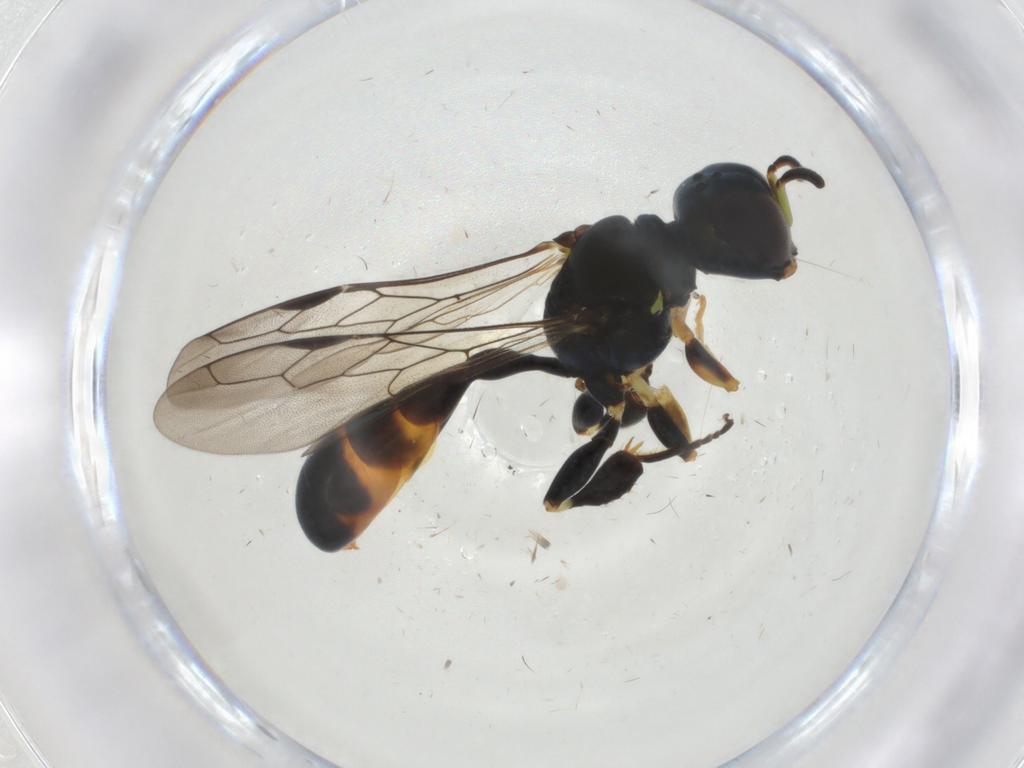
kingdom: Animalia
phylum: Arthropoda
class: Insecta
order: Hymenoptera
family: Crabronidae
